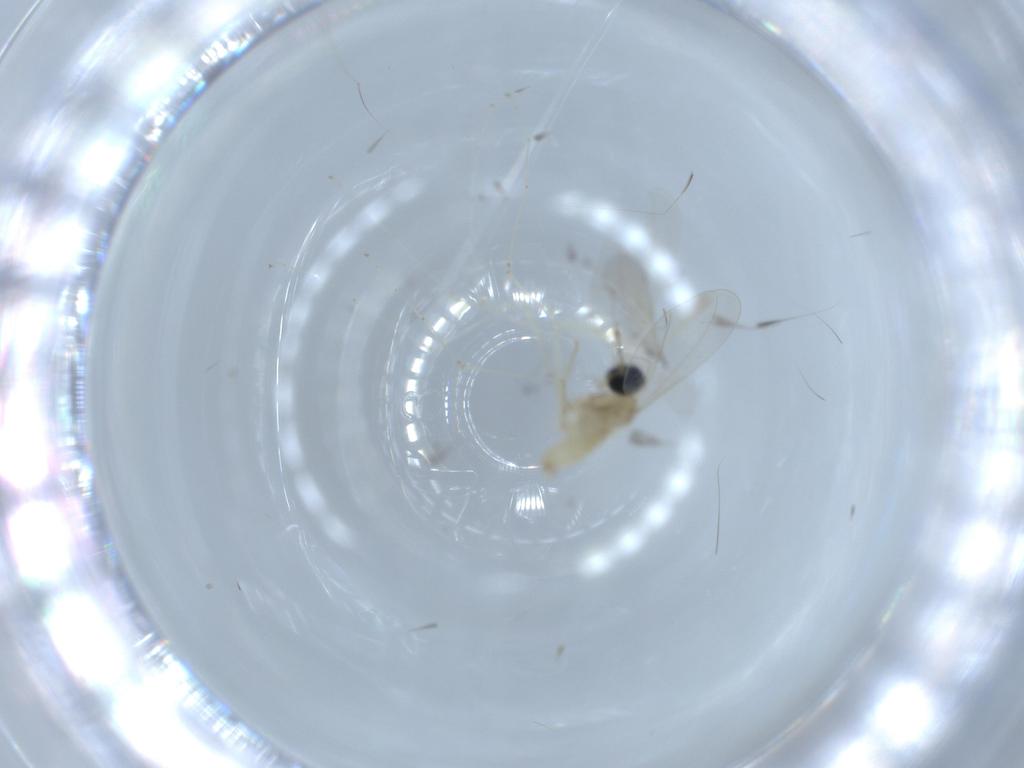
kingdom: Animalia
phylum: Arthropoda
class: Insecta
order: Diptera
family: Cecidomyiidae
